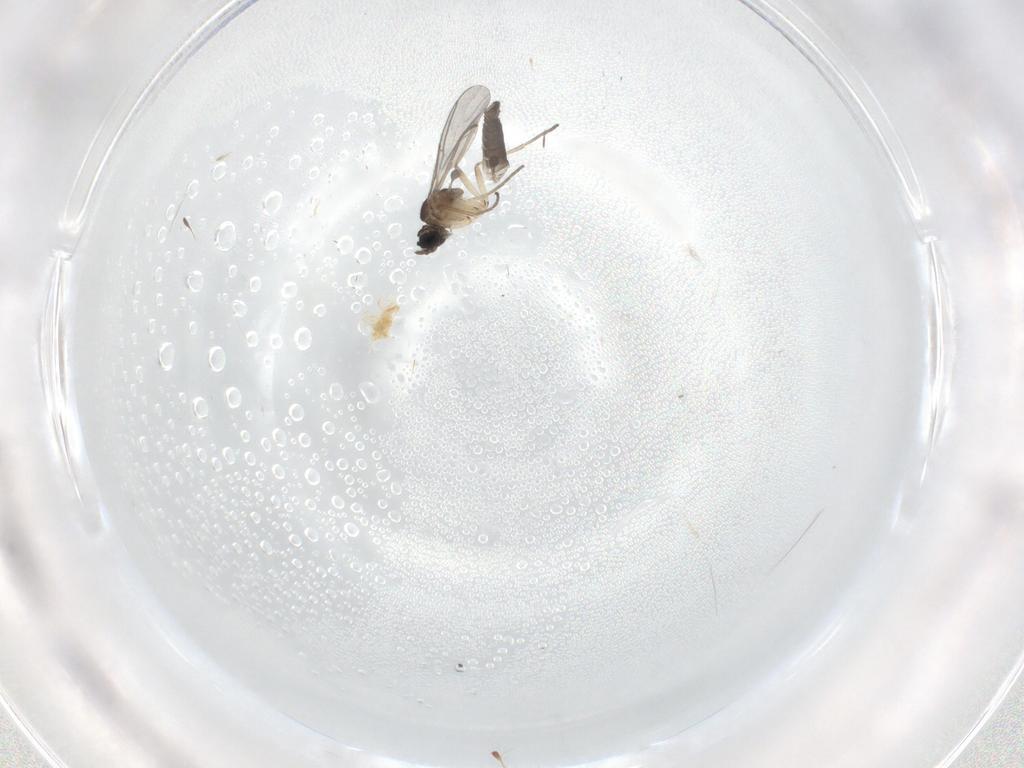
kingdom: Animalia
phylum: Arthropoda
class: Insecta
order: Diptera
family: Sciaridae
